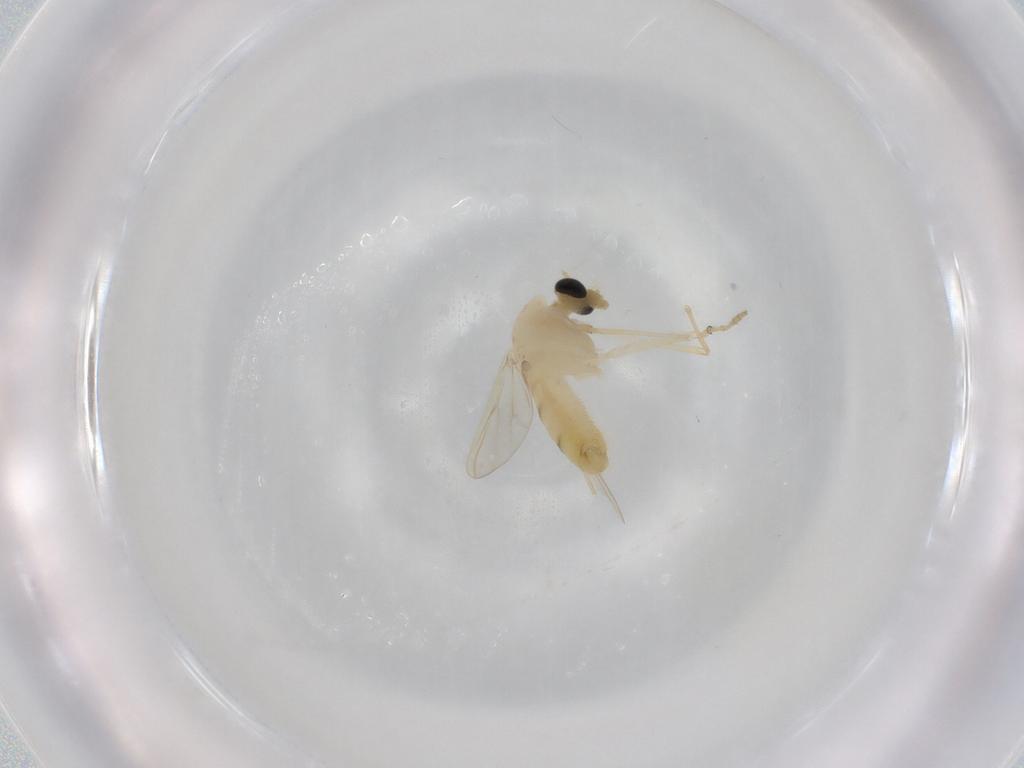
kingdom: Animalia
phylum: Arthropoda
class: Insecta
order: Diptera
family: Chironomidae
